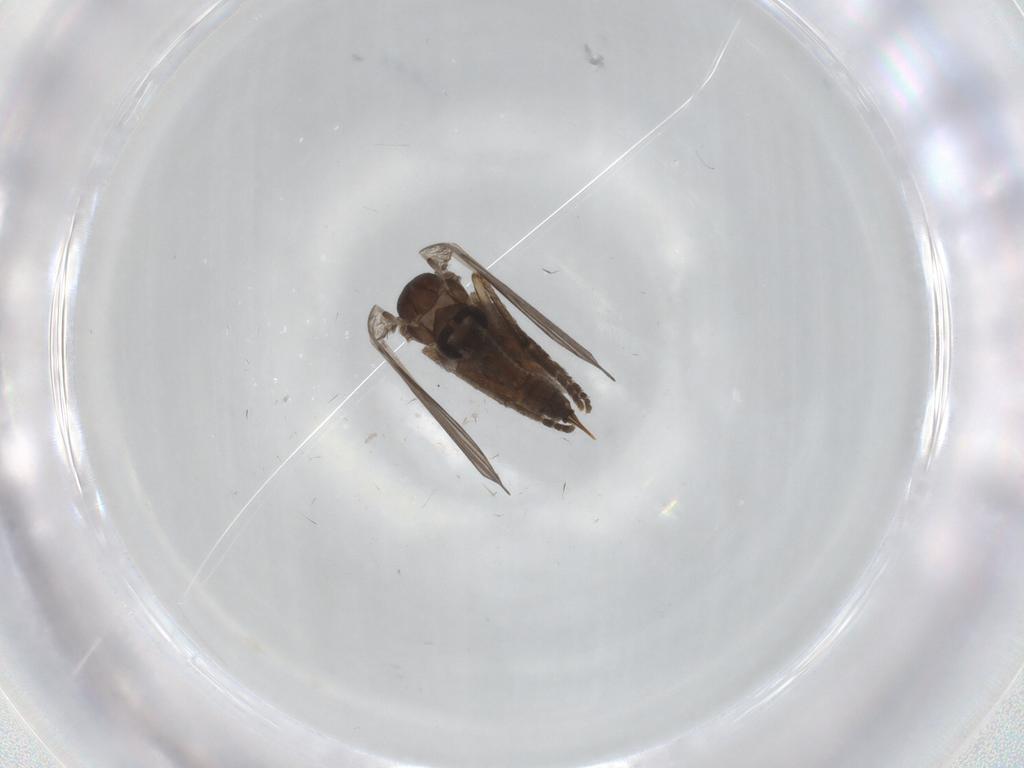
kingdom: Animalia
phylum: Arthropoda
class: Insecta
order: Diptera
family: Psychodidae
